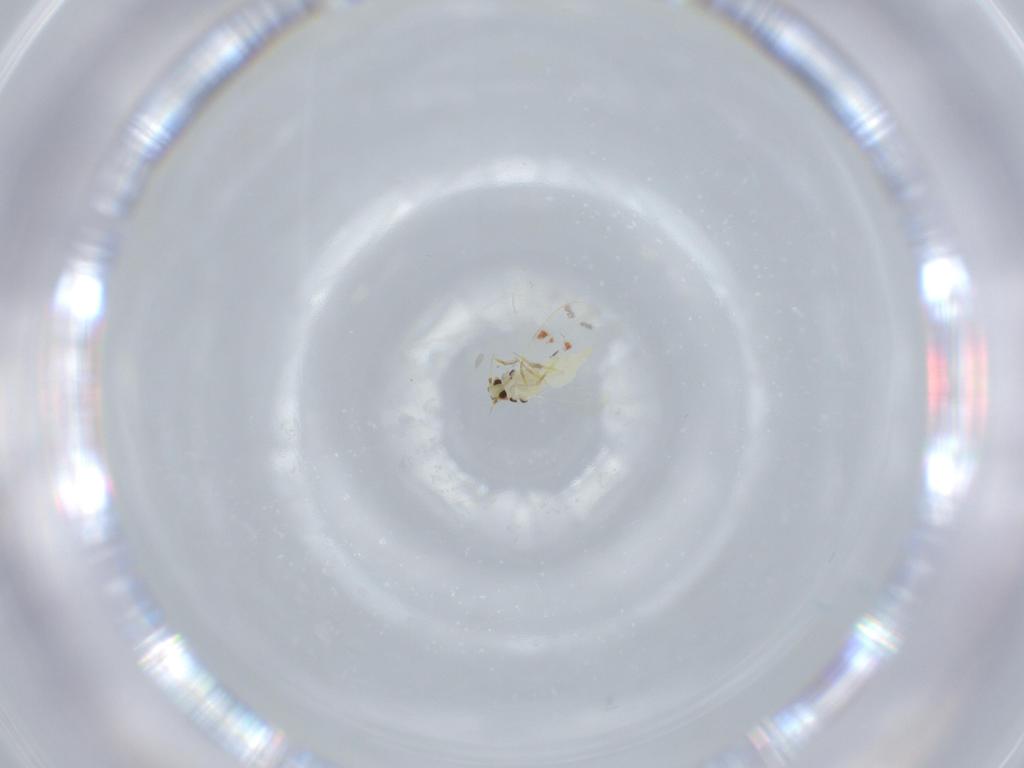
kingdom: Animalia
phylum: Arthropoda
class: Insecta
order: Hemiptera
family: Aleyrodidae
